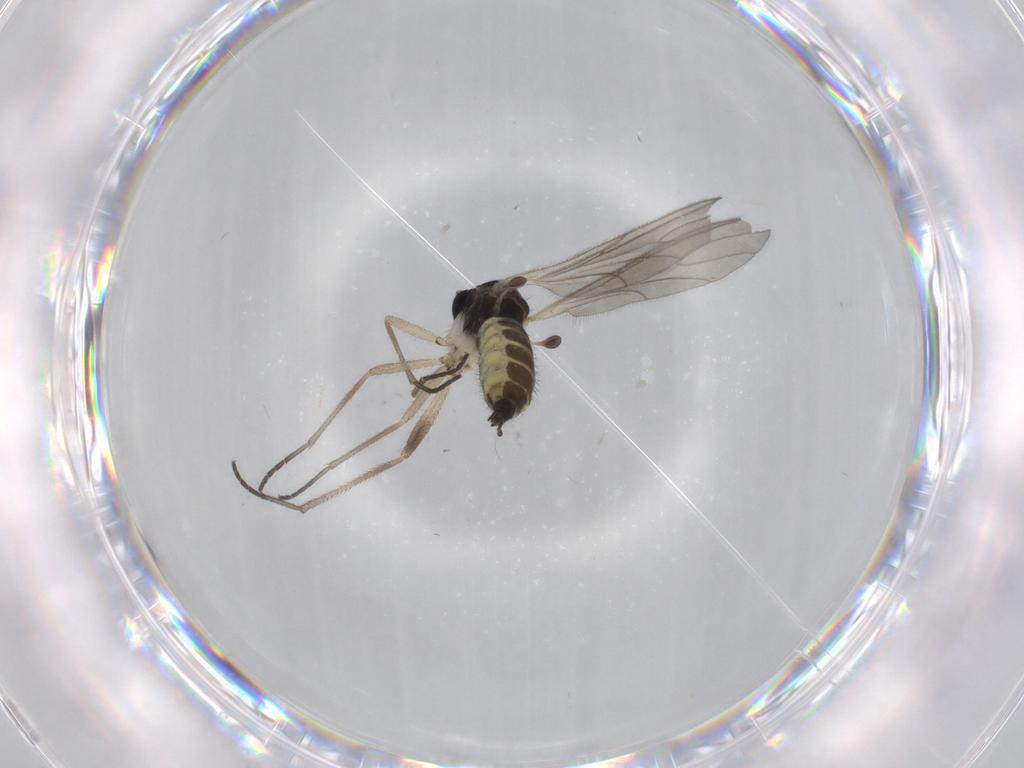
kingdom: Animalia
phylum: Arthropoda
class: Insecta
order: Diptera
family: Sciaridae
